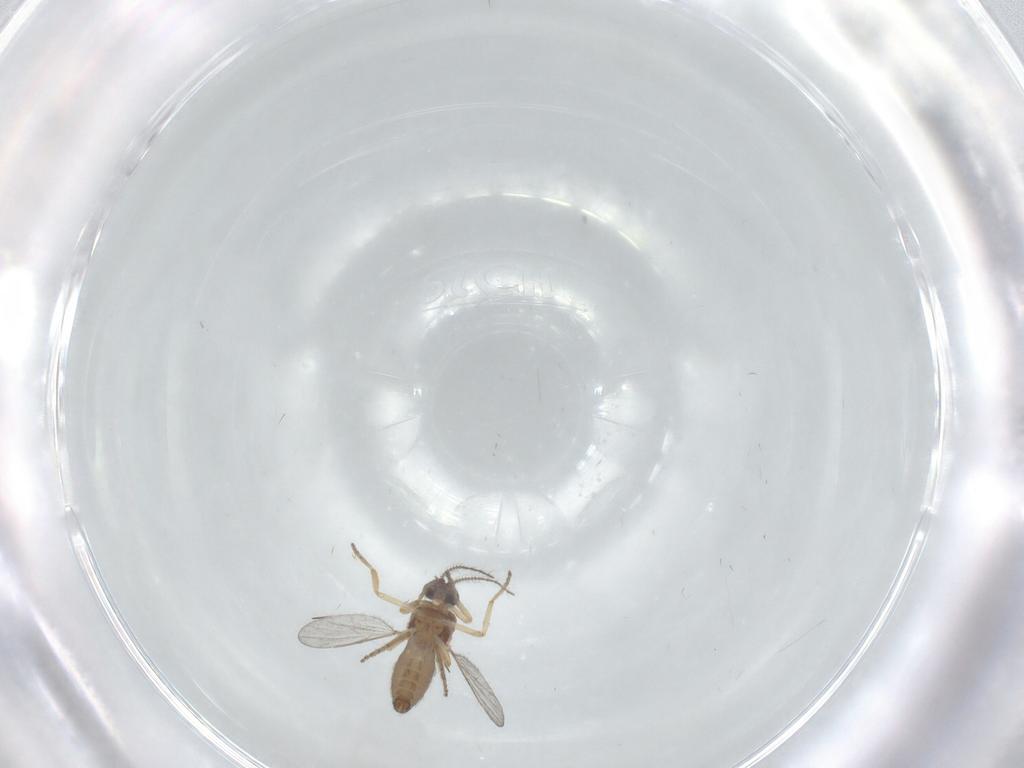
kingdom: Animalia
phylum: Arthropoda
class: Insecta
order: Diptera
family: Ceratopogonidae
